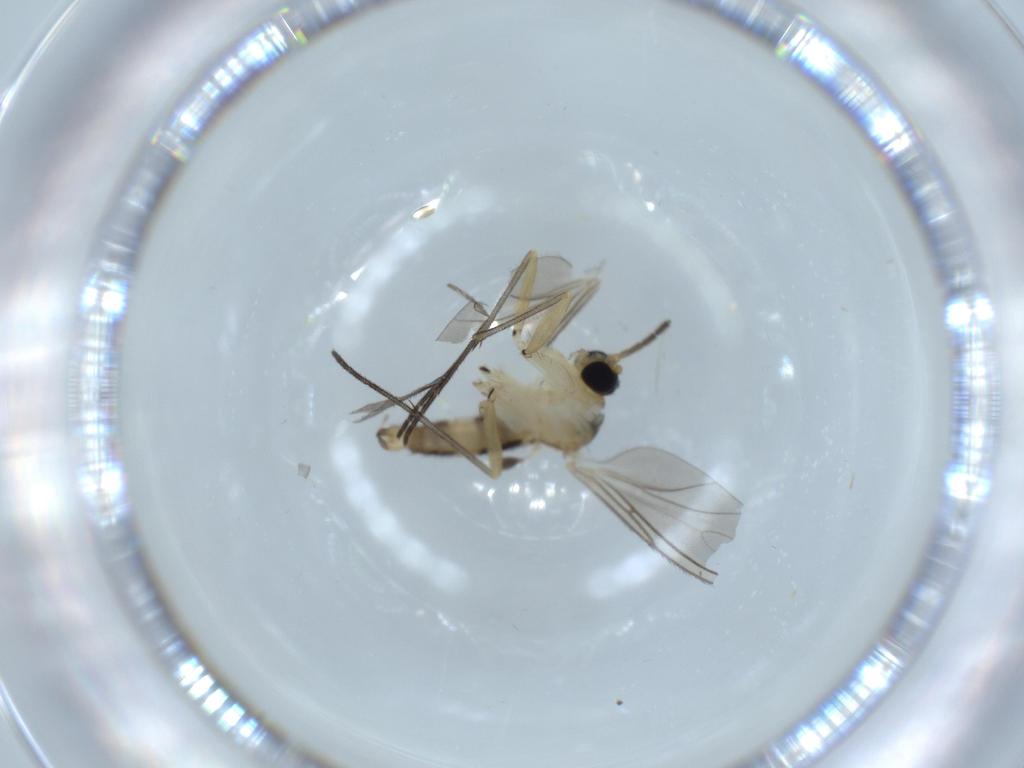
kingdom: Animalia
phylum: Arthropoda
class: Insecta
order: Diptera
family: Sciaridae
